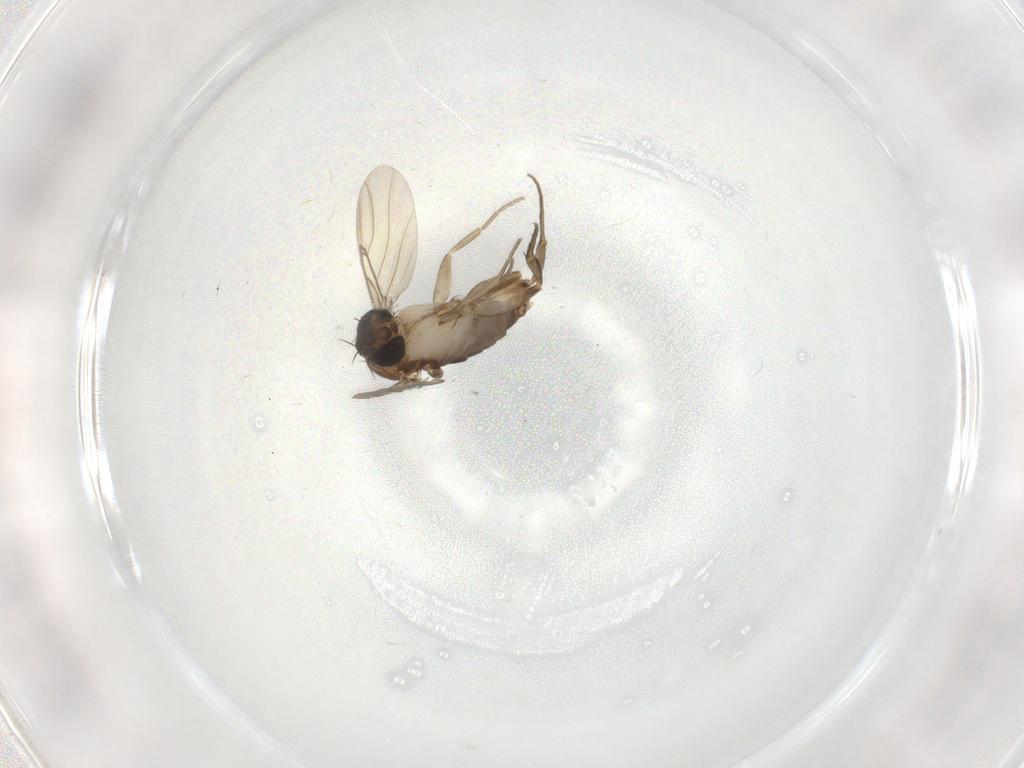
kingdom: Animalia
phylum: Arthropoda
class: Insecta
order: Diptera
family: Phoridae
